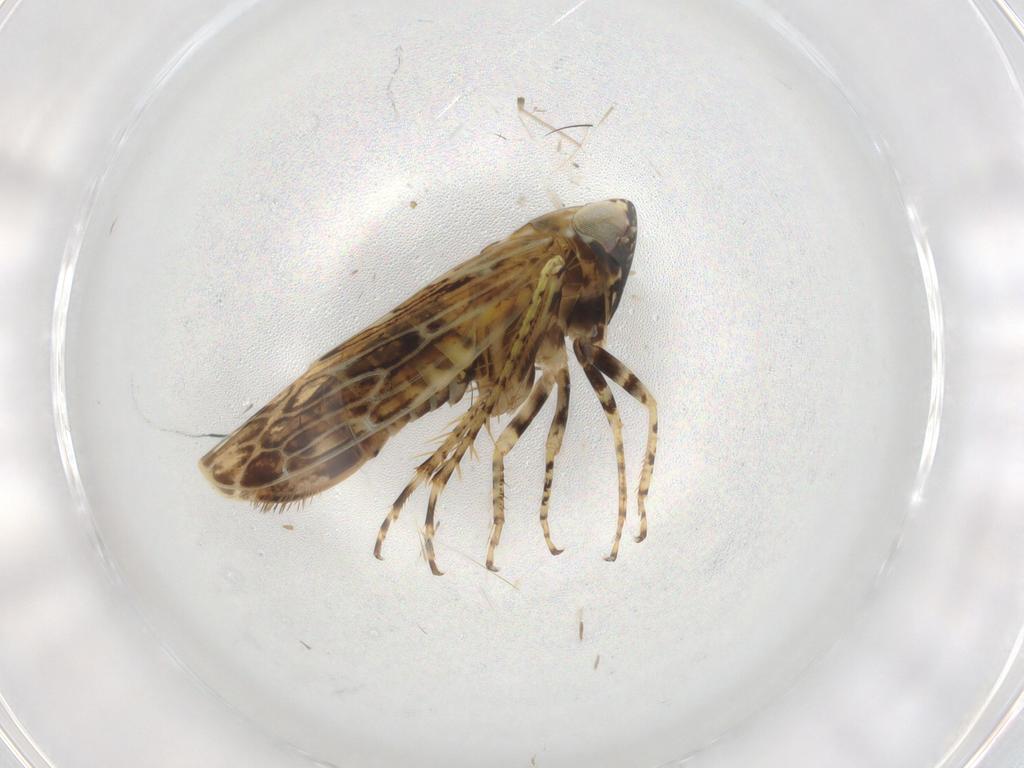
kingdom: Animalia
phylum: Arthropoda
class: Insecta
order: Hemiptera
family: Cicadellidae
